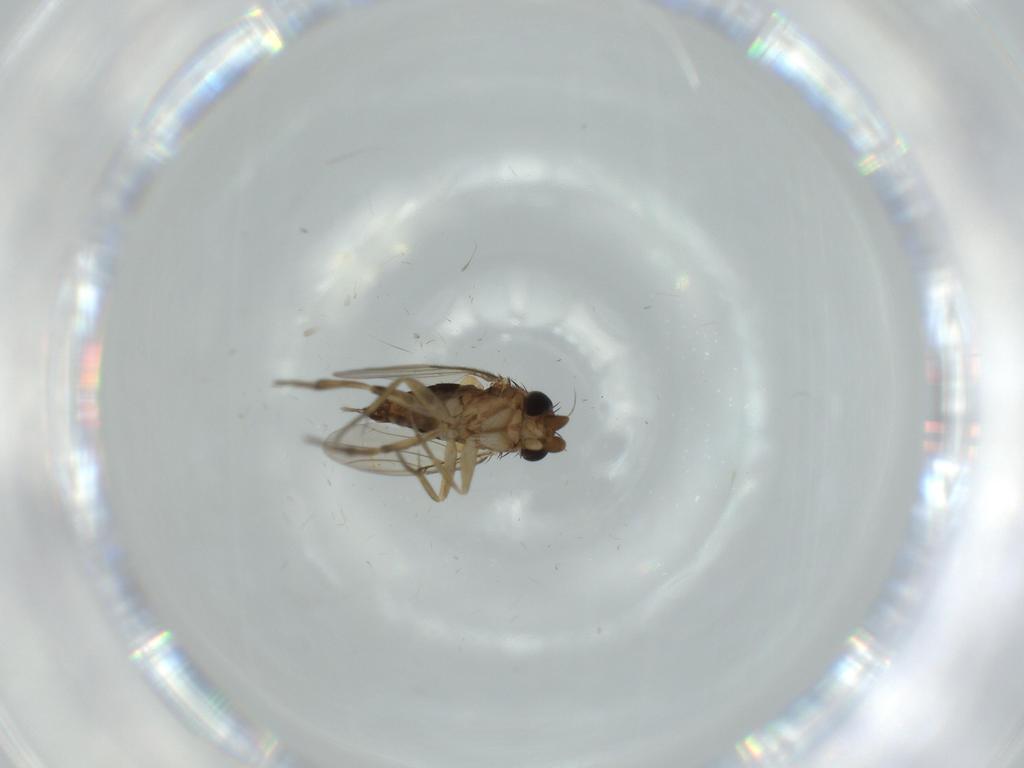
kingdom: Animalia
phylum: Arthropoda
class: Insecta
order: Diptera
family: Phoridae
